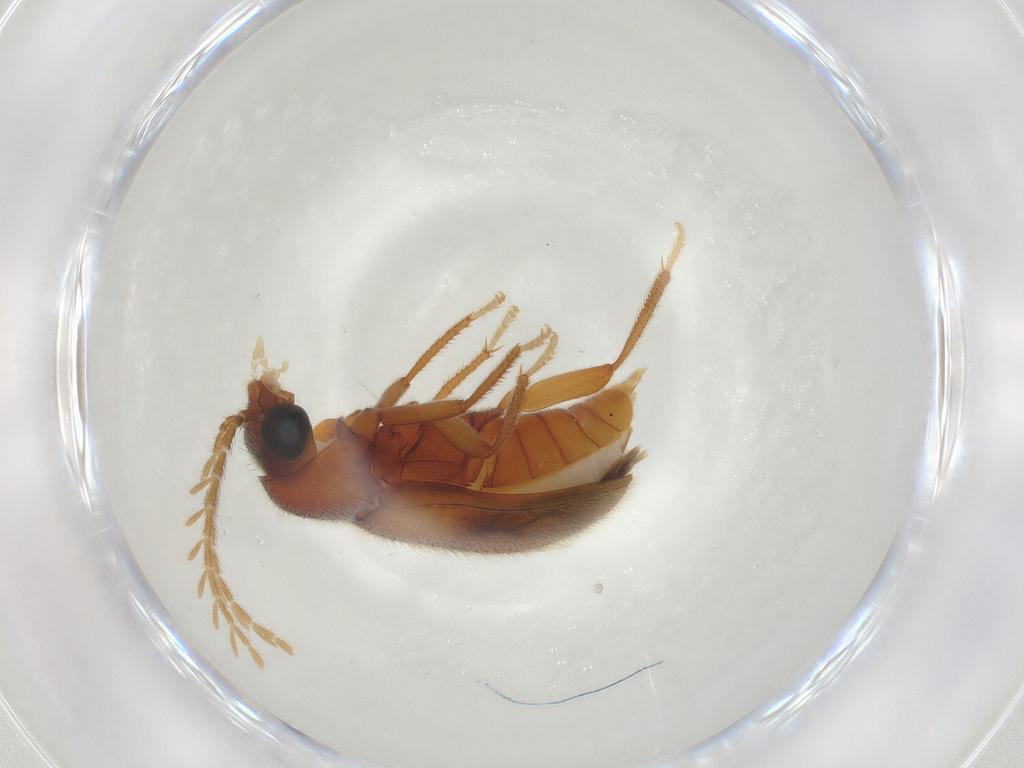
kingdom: Animalia
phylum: Arthropoda
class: Insecta
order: Coleoptera
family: Ptilodactylidae
